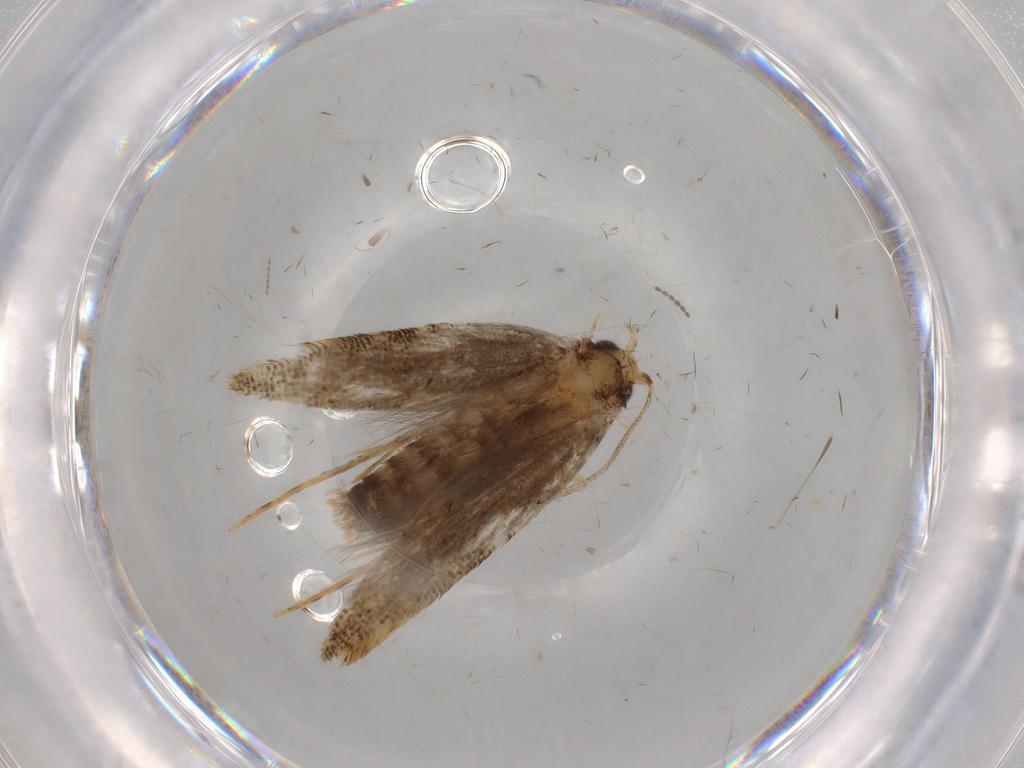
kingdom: Animalia
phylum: Arthropoda
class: Insecta
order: Lepidoptera
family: Tineidae
